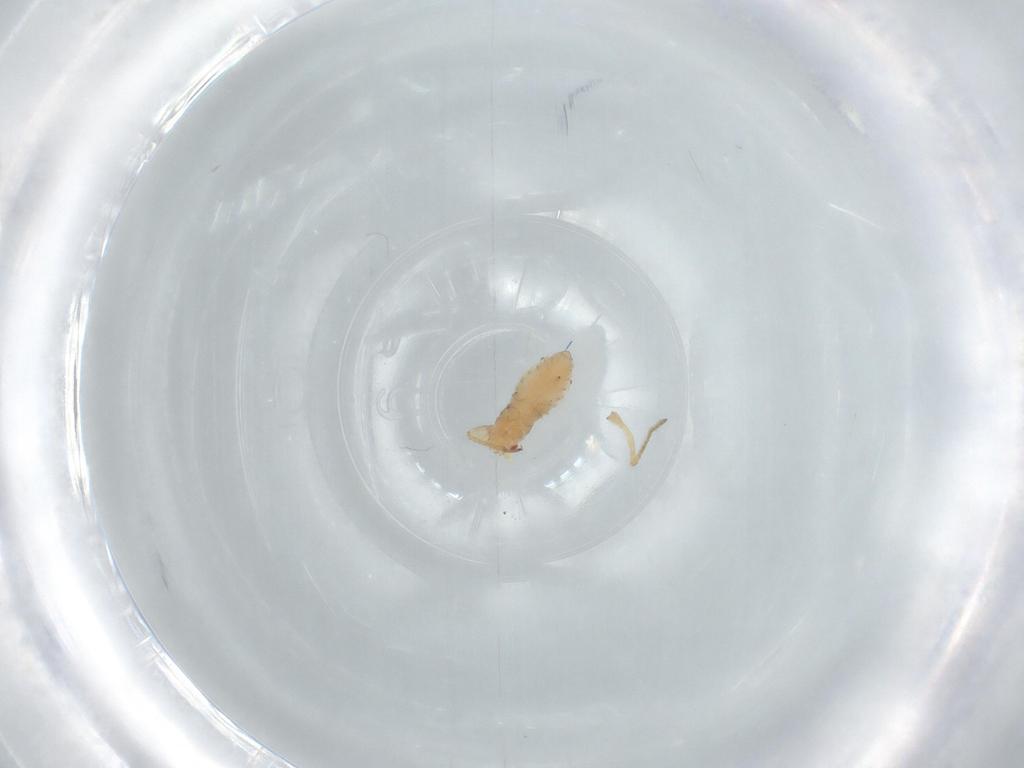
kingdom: Animalia
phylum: Arthropoda
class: Insecta
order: Hemiptera
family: Aphididae
